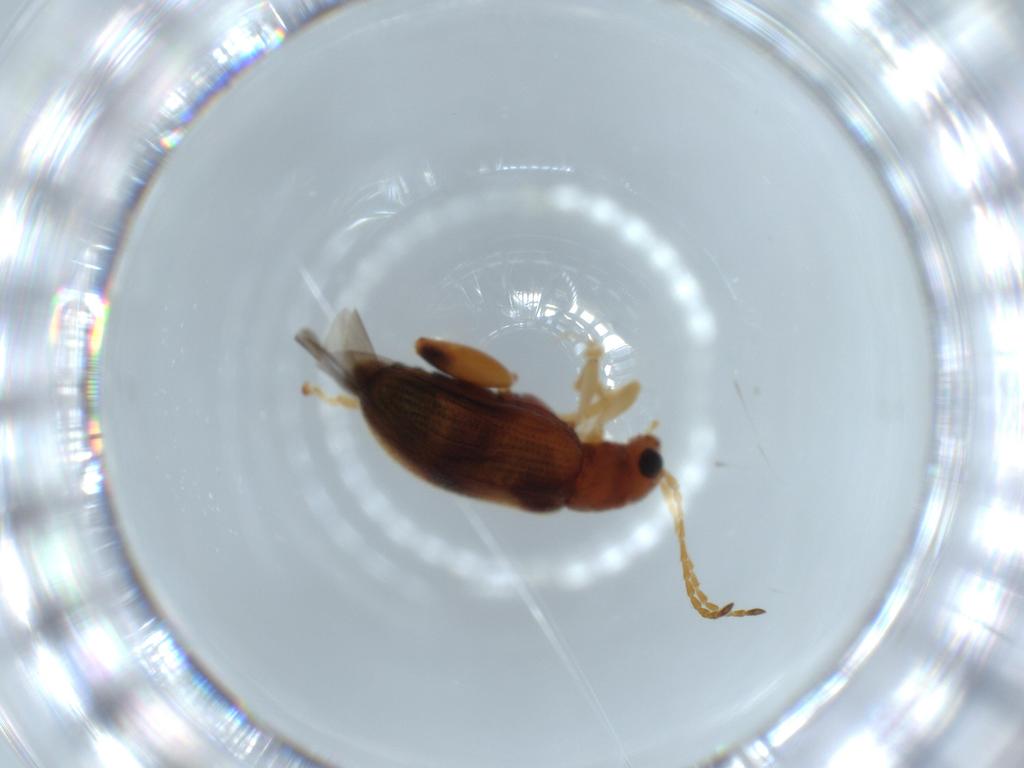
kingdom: Animalia
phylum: Arthropoda
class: Insecta
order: Coleoptera
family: Chrysomelidae
